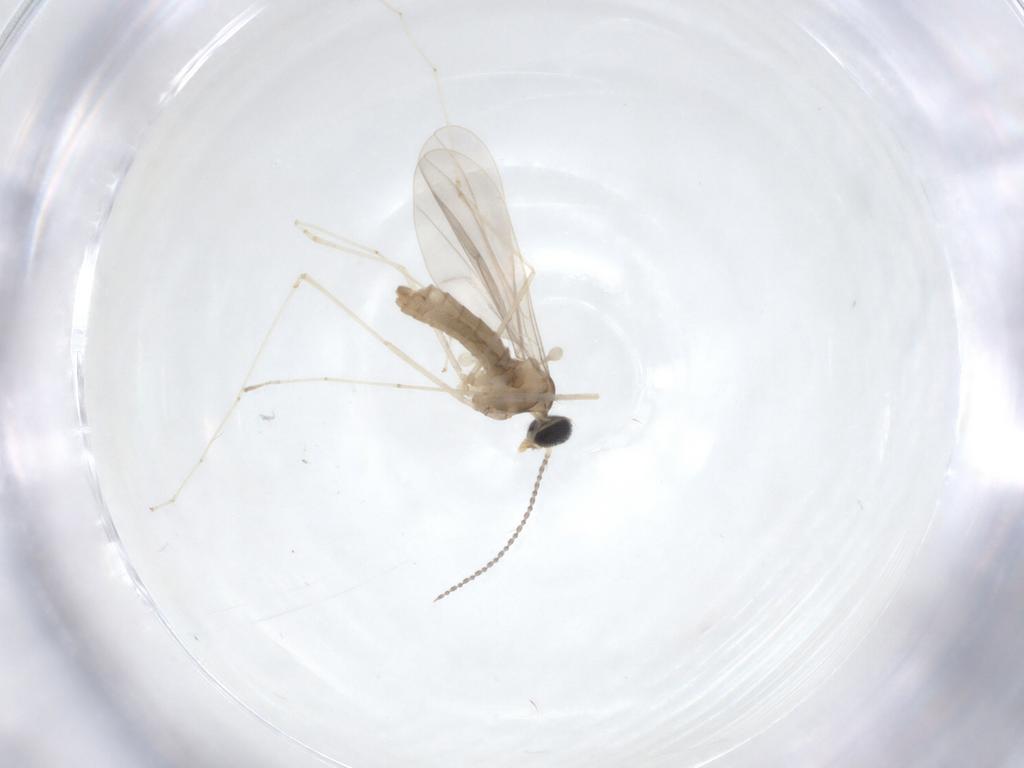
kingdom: Animalia
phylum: Arthropoda
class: Insecta
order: Diptera
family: Cecidomyiidae
